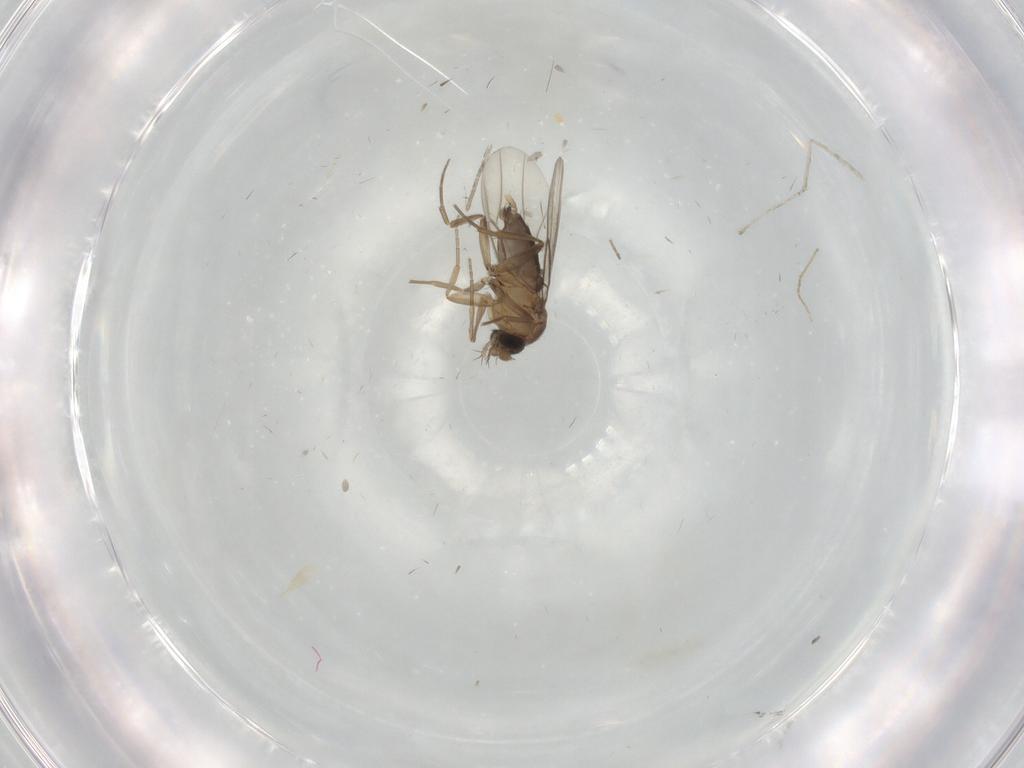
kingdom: Animalia
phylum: Arthropoda
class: Insecta
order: Diptera
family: Cecidomyiidae
